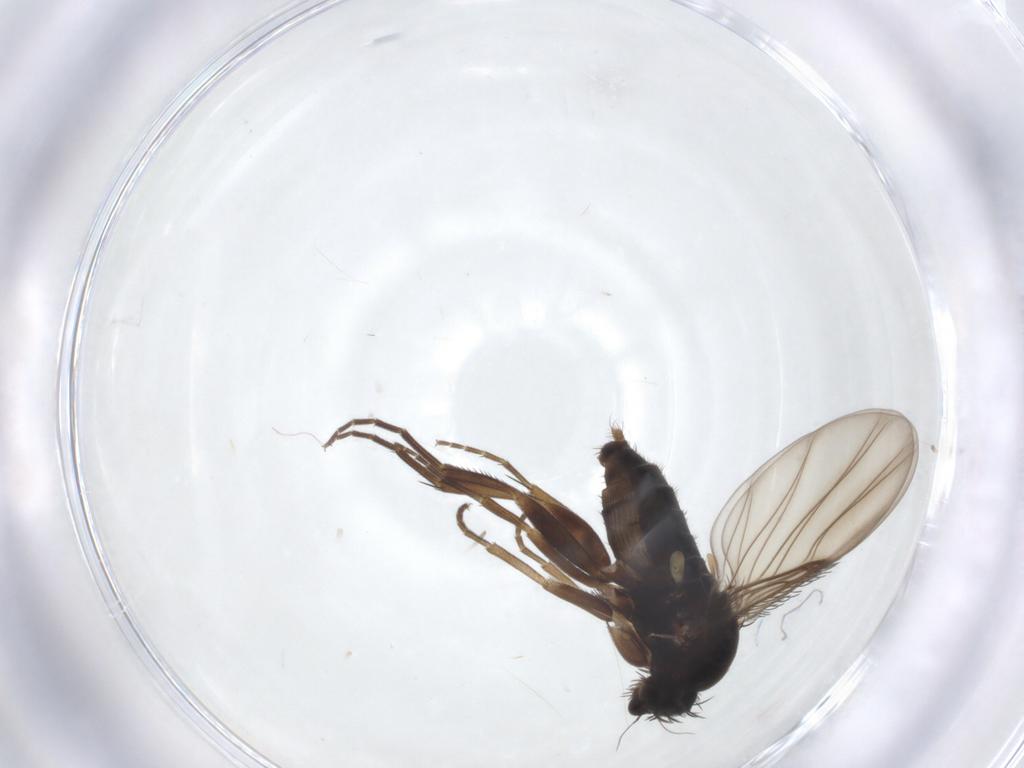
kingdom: Animalia
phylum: Arthropoda
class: Insecta
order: Diptera
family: Phoridae
